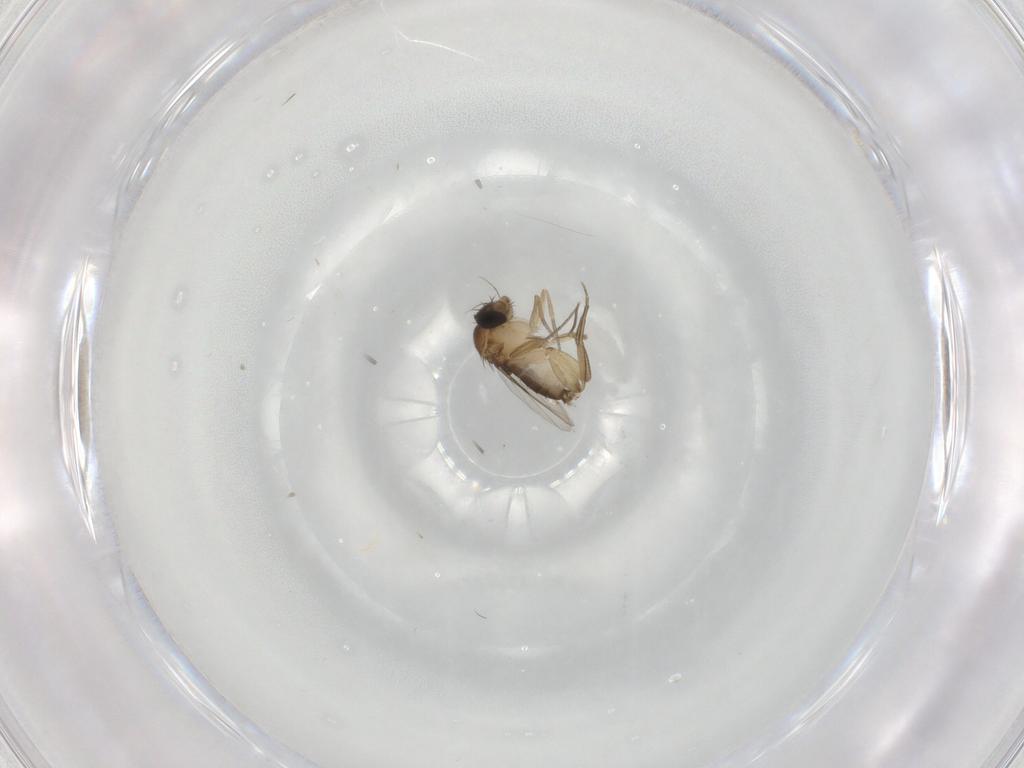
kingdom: Animalia
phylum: Arthropoda
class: Insecta
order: Diptera
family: Phoridae
